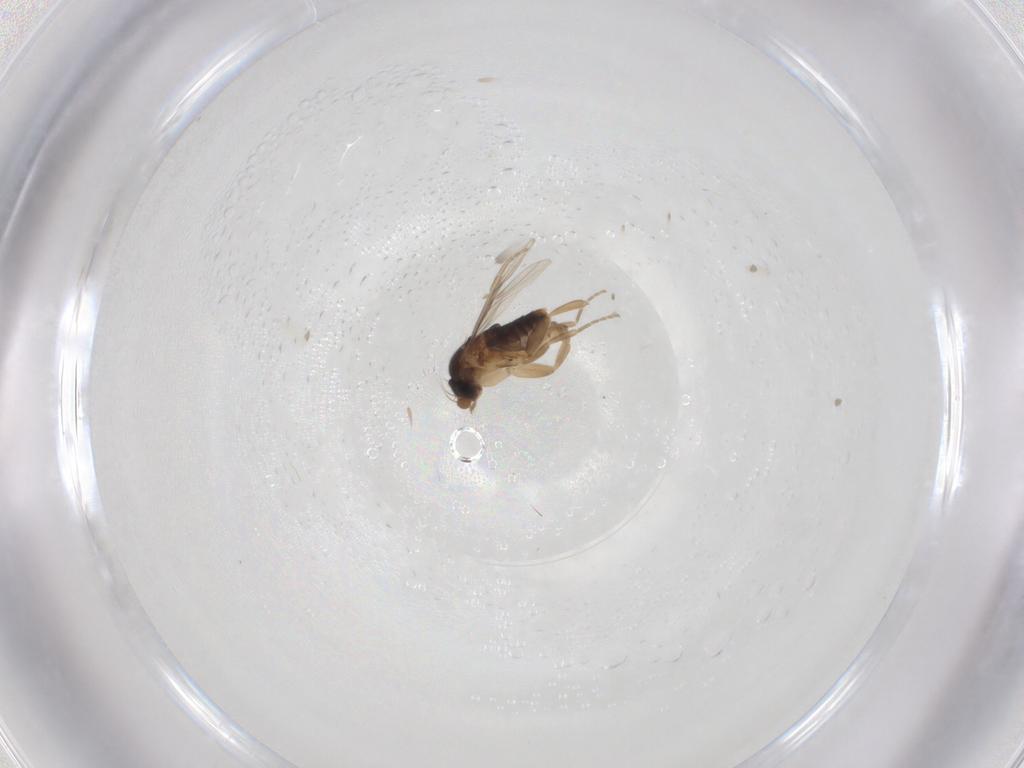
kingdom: Animalia
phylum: Arthropoda
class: Insecta
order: Diptera
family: Phoridae
